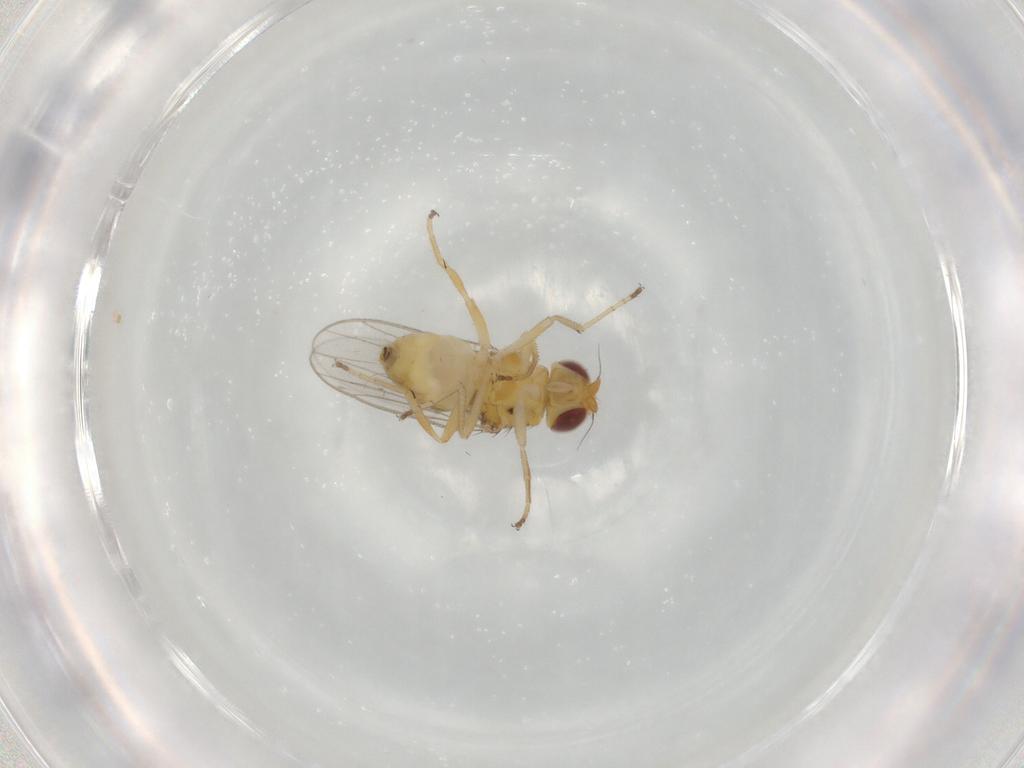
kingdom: Animalia
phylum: Arthropoda
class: Insecta
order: Diptera
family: Chloropidae
